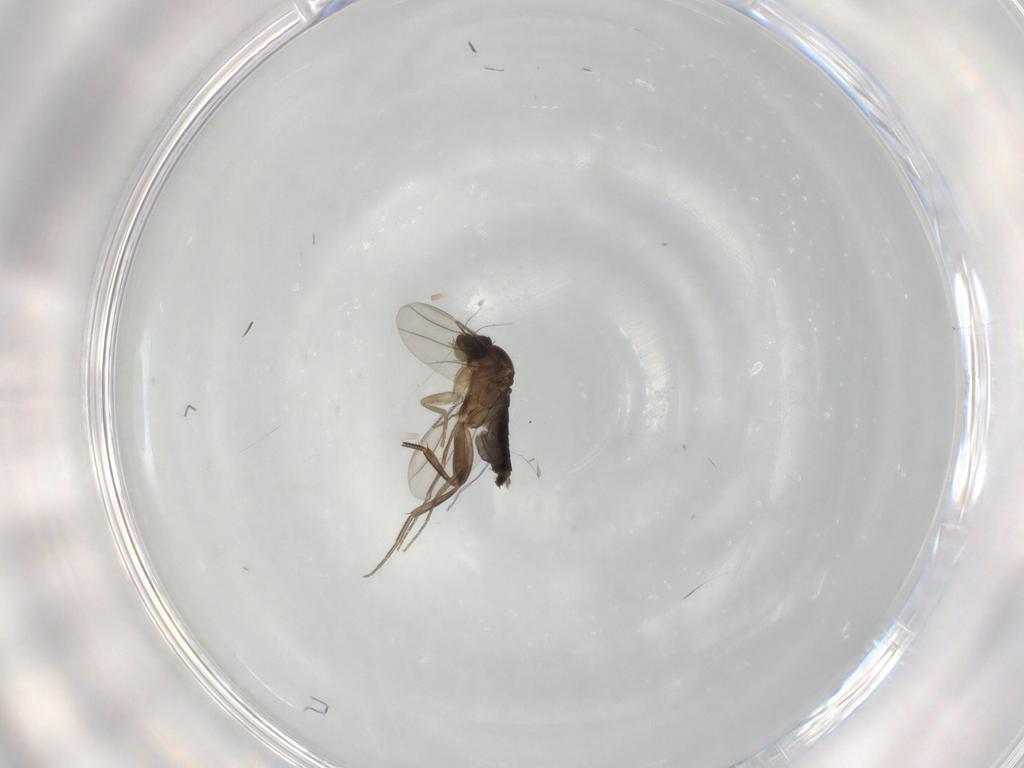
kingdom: Animalia
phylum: Arthropoda
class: Insecta
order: Diptera
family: Phoridae
